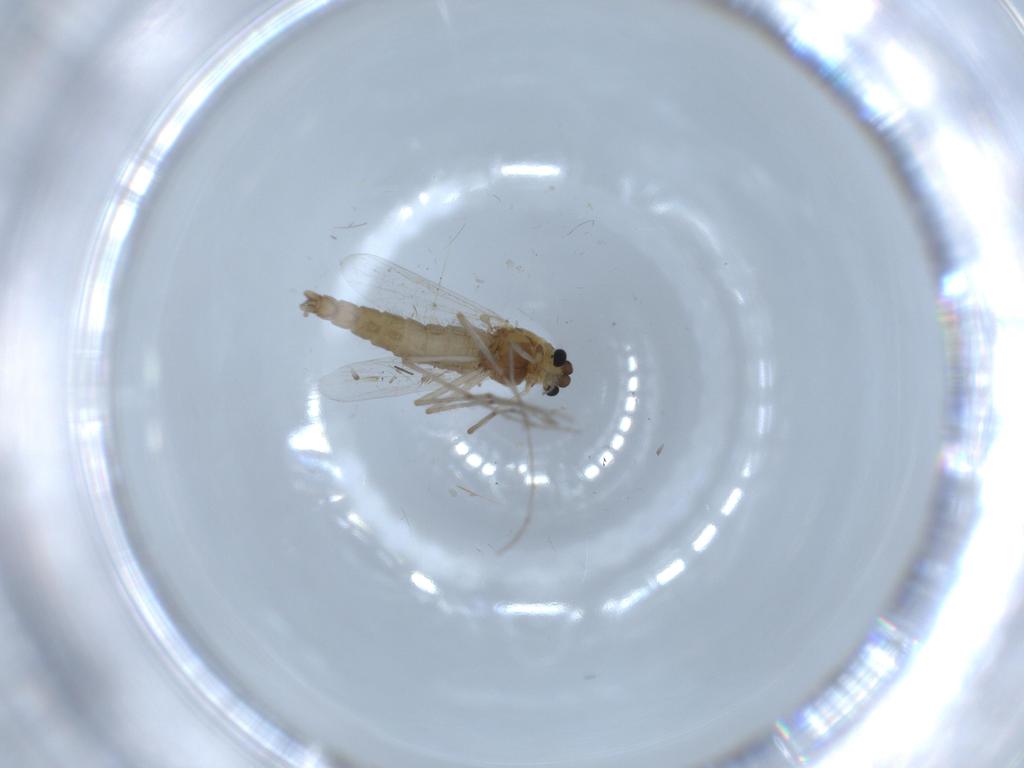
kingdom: Animalia
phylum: Arthropoda
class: Insecta
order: Diptera
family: Chironomidae
